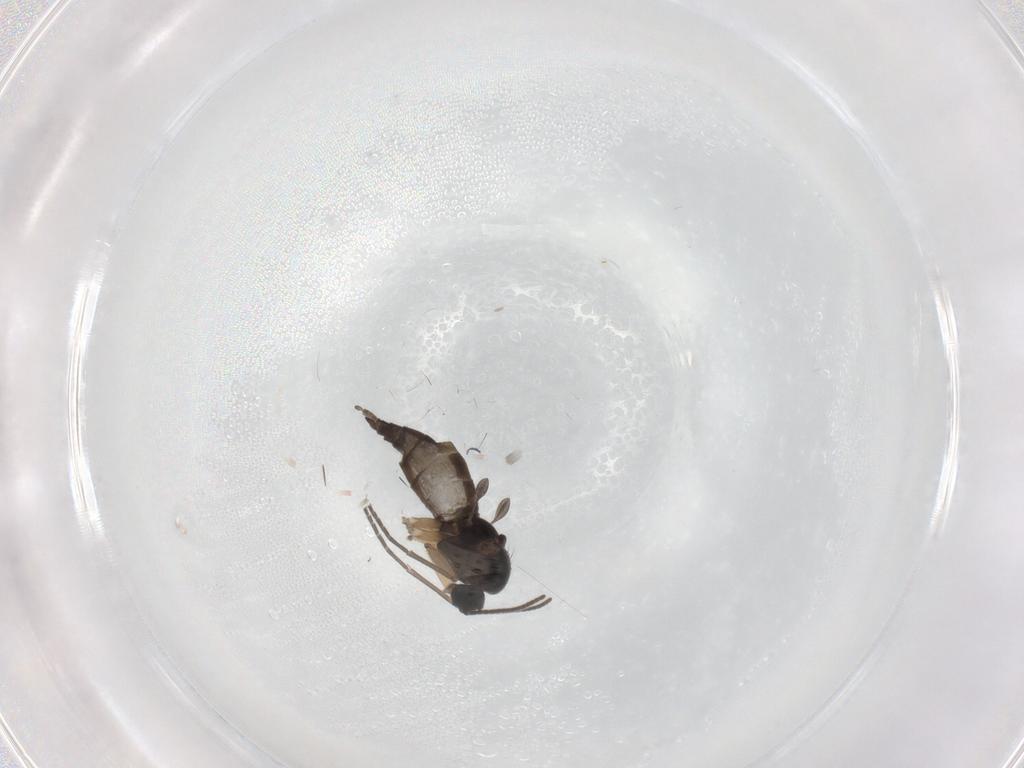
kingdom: Animalia
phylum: Arthropoda
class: Insecta
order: Diptera
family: Sciaridae
